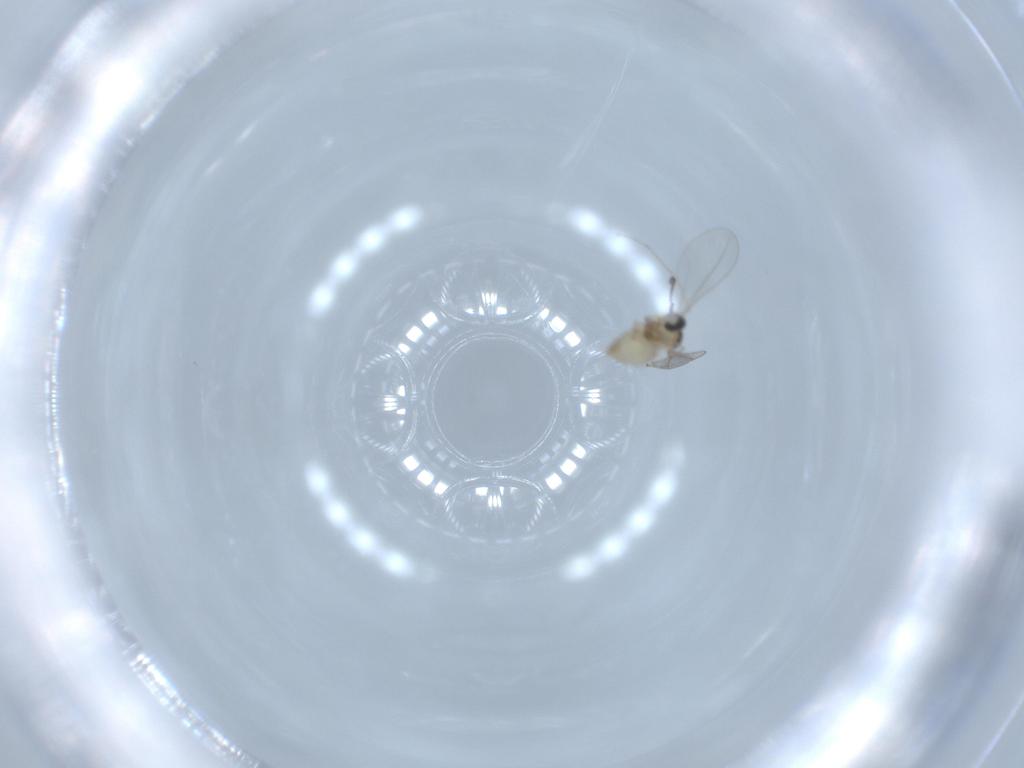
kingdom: Animalia
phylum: Arthropoda
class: Insecta
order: Diptera
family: Cecidomyiidae
